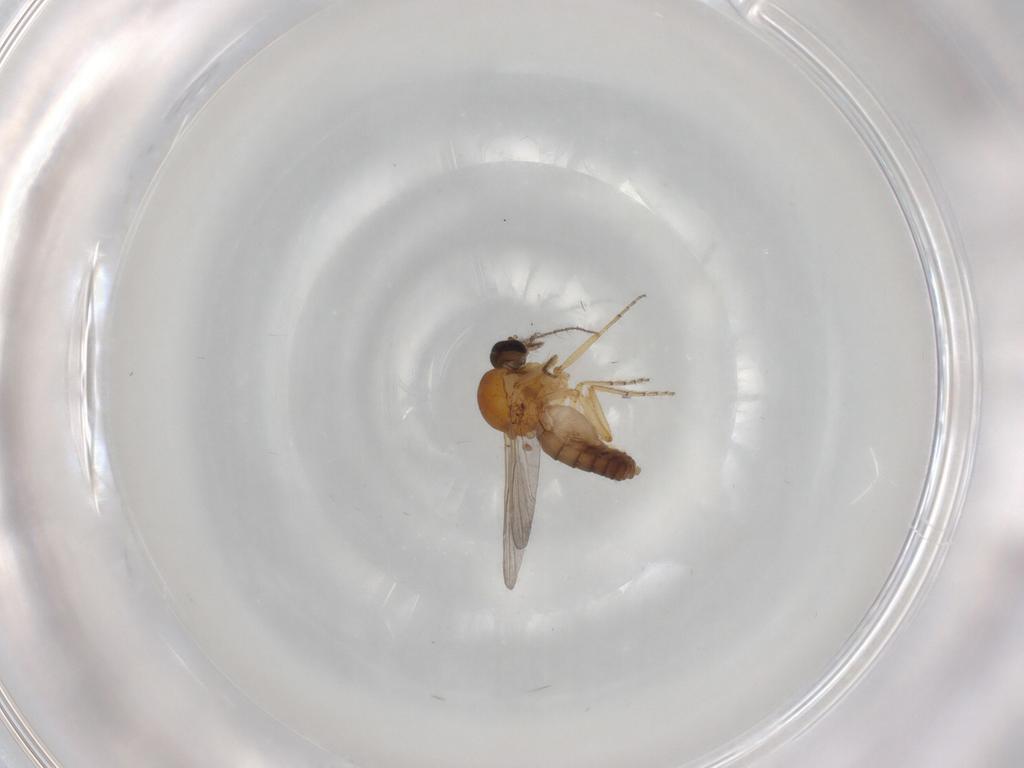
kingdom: Animalia
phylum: Arthropoda
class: Insecta
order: Diptera
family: Ceratopogonidae
